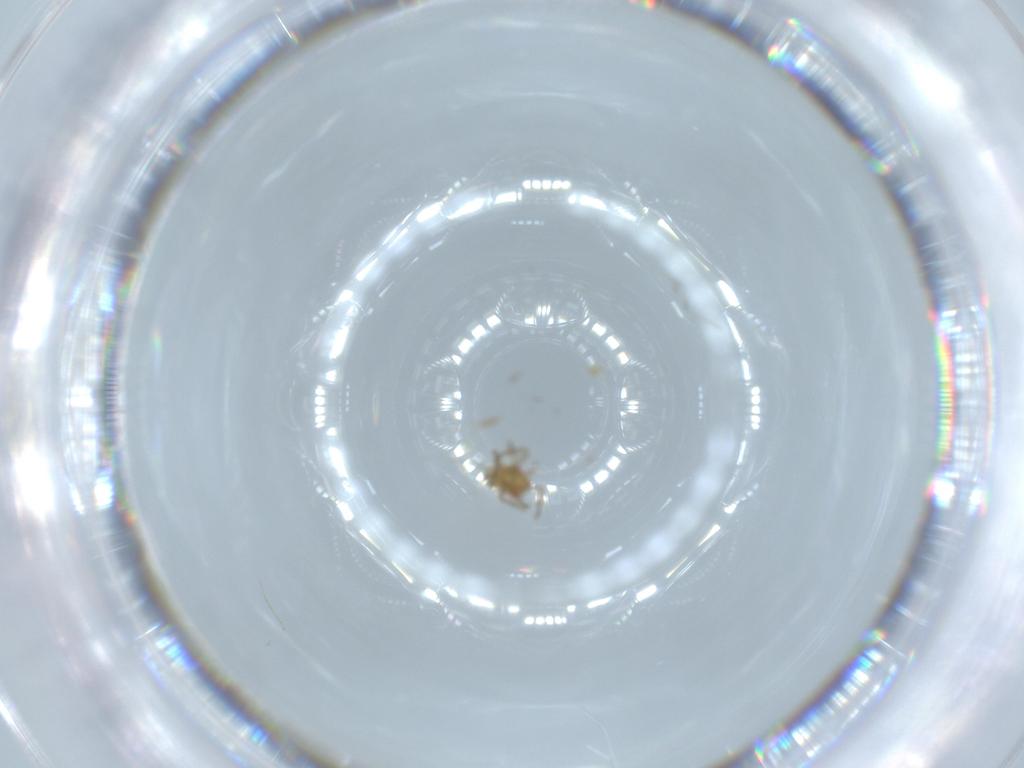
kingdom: Animalia
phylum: Arthropoda
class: Insecta
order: Hemiptera
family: Miridae
